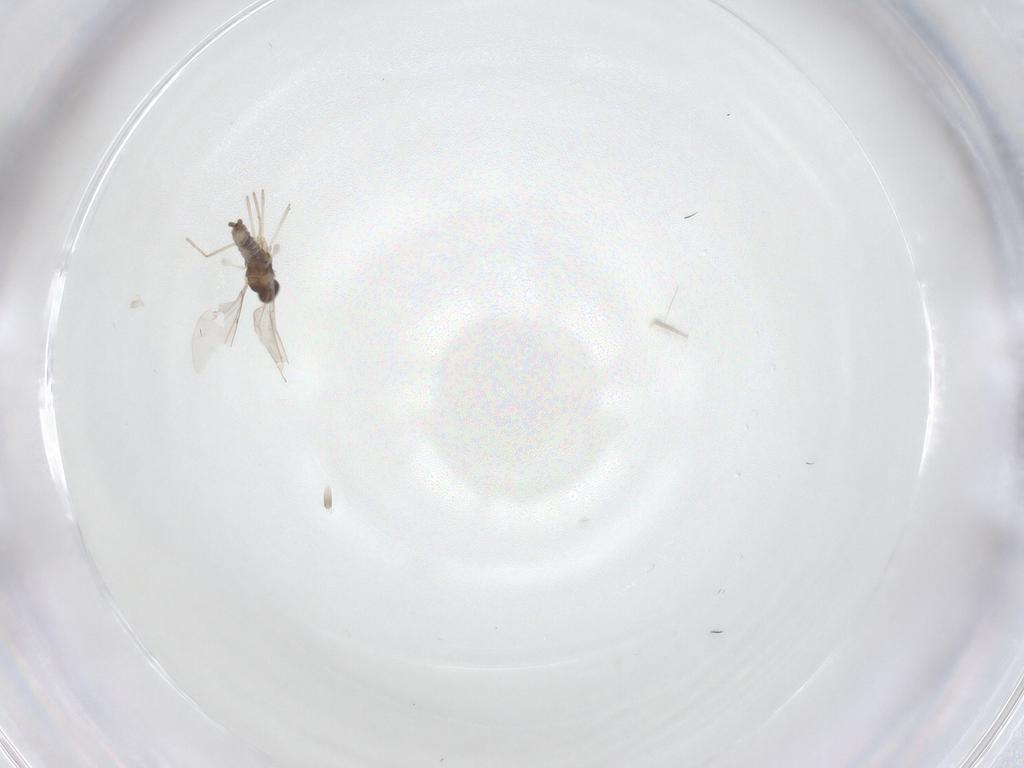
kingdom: Animalia
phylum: Arthropoda
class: Insecta
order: Diptera
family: Cecidomyiidae
